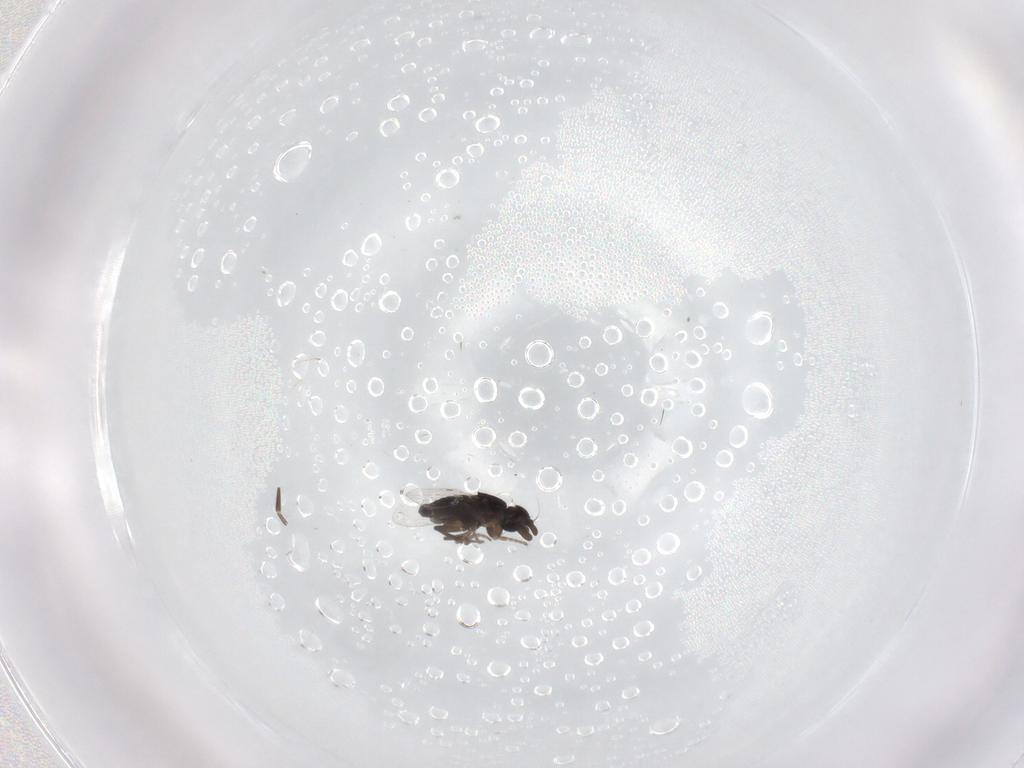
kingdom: Animalia
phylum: Arthropoda
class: Insecta
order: Diptera
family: Phoridae
